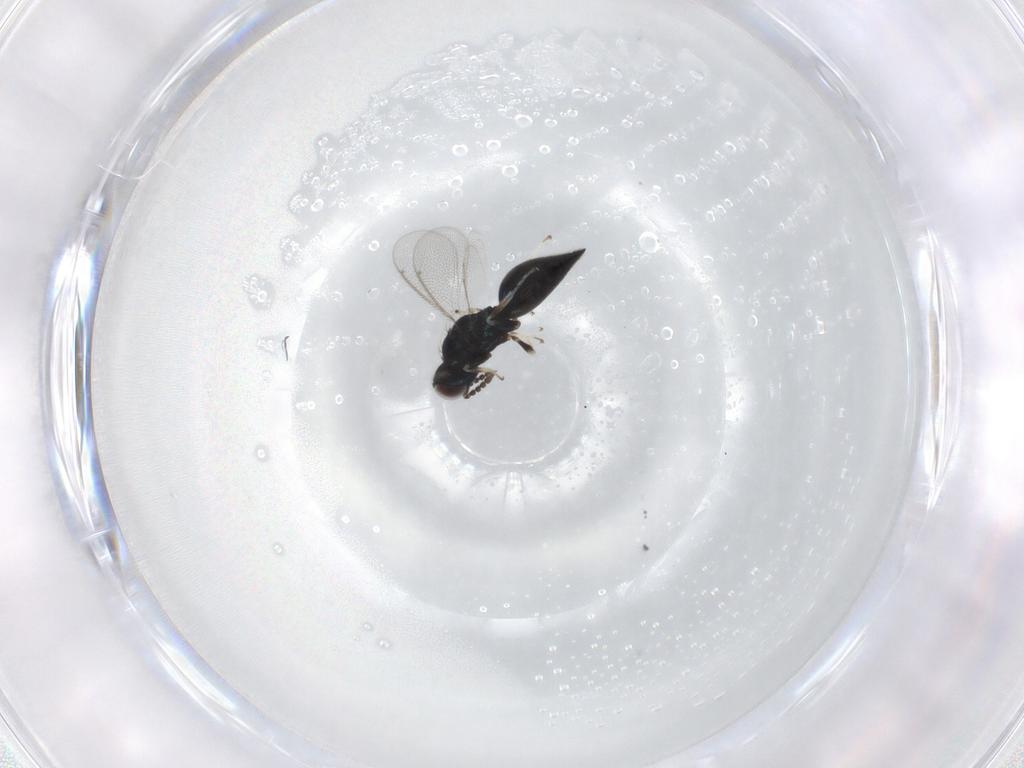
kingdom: Animalia
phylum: Arthropoda
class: Insecta
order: Hymenoptera
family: Eulophidae
